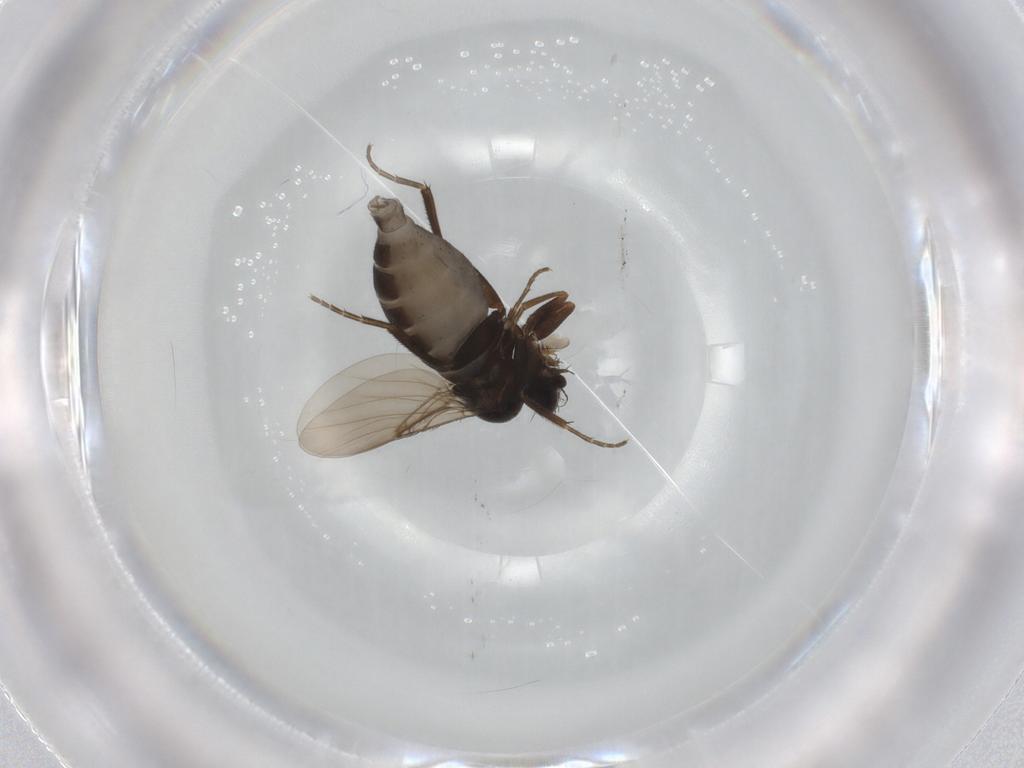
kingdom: Animalia
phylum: Arthropoda
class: Insecta
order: Diptera
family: Phoridae
